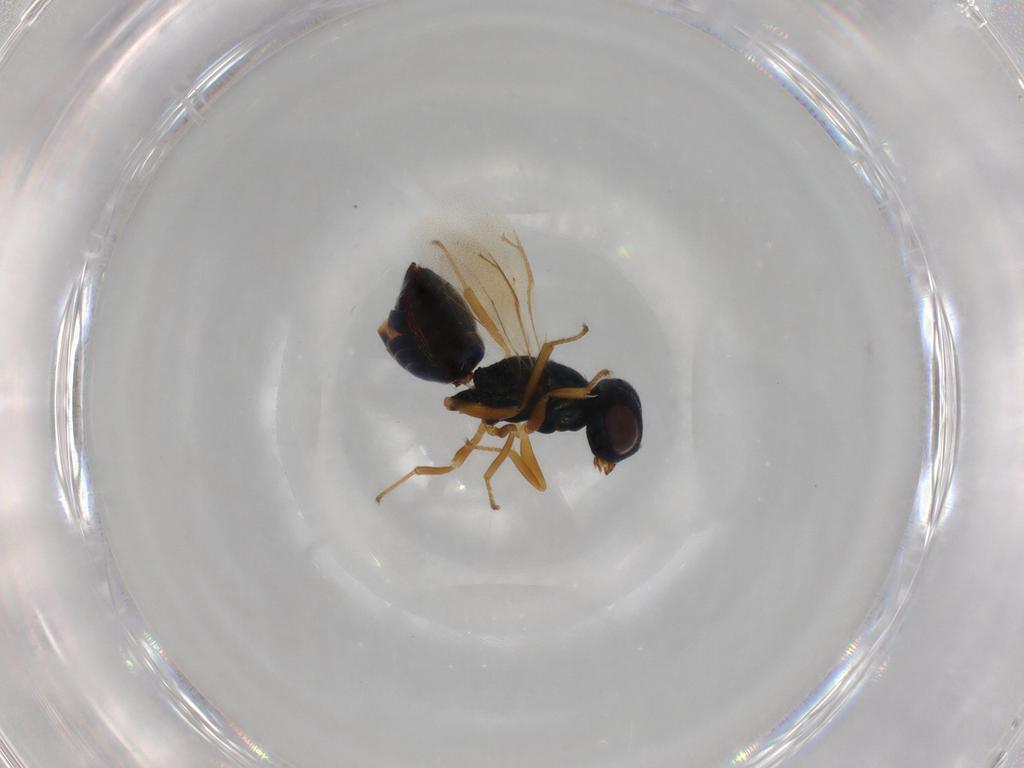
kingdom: Animalia
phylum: Arthropoda
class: Insecta
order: Hymenoptera
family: Pteromalidae
